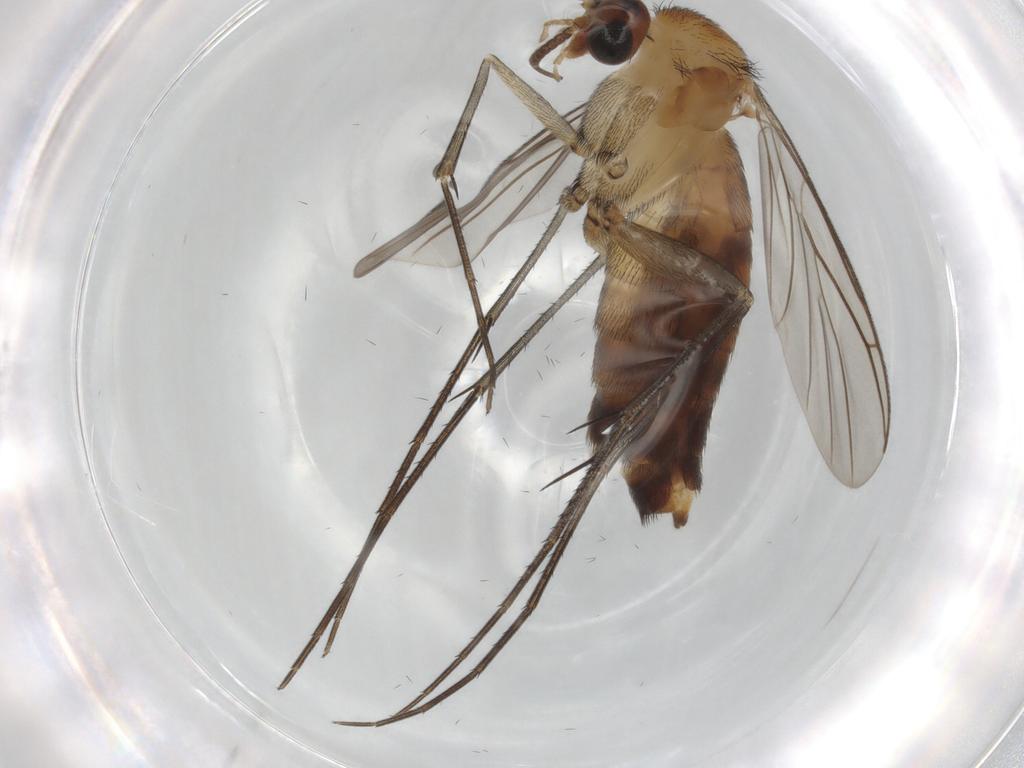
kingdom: Animalia
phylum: Arthropoda
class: Insecta
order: Diptera
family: Keroplatidae
